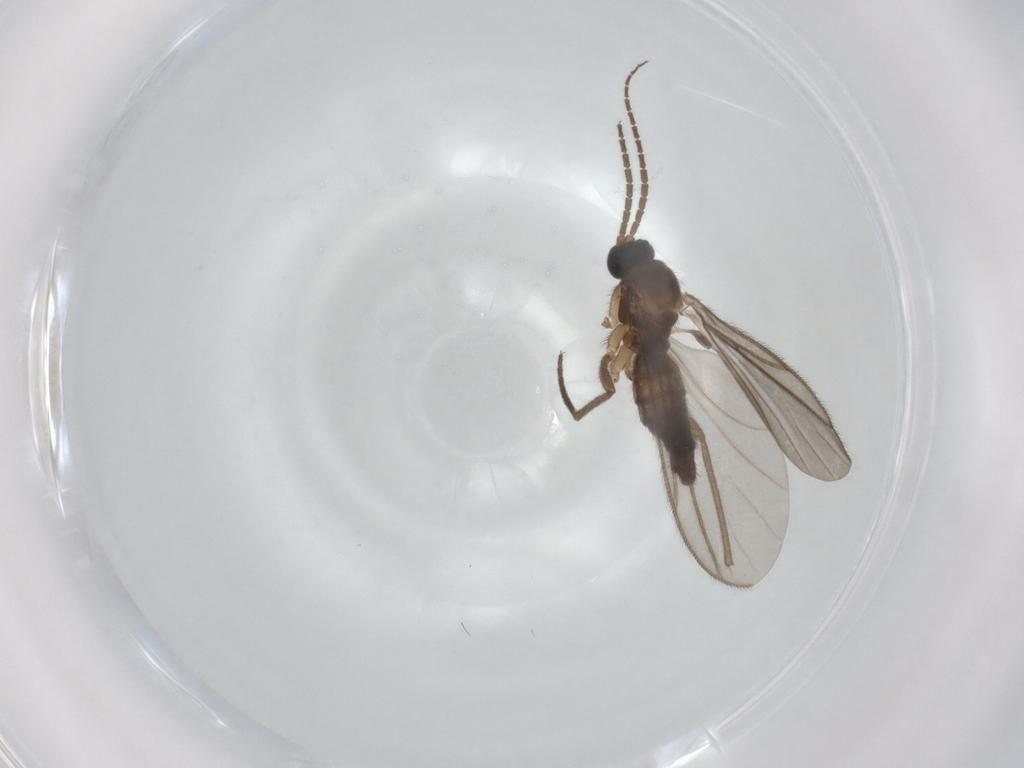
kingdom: Animalia
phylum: Arthropoda
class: Insecta
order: Diptera
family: Sciaridae
